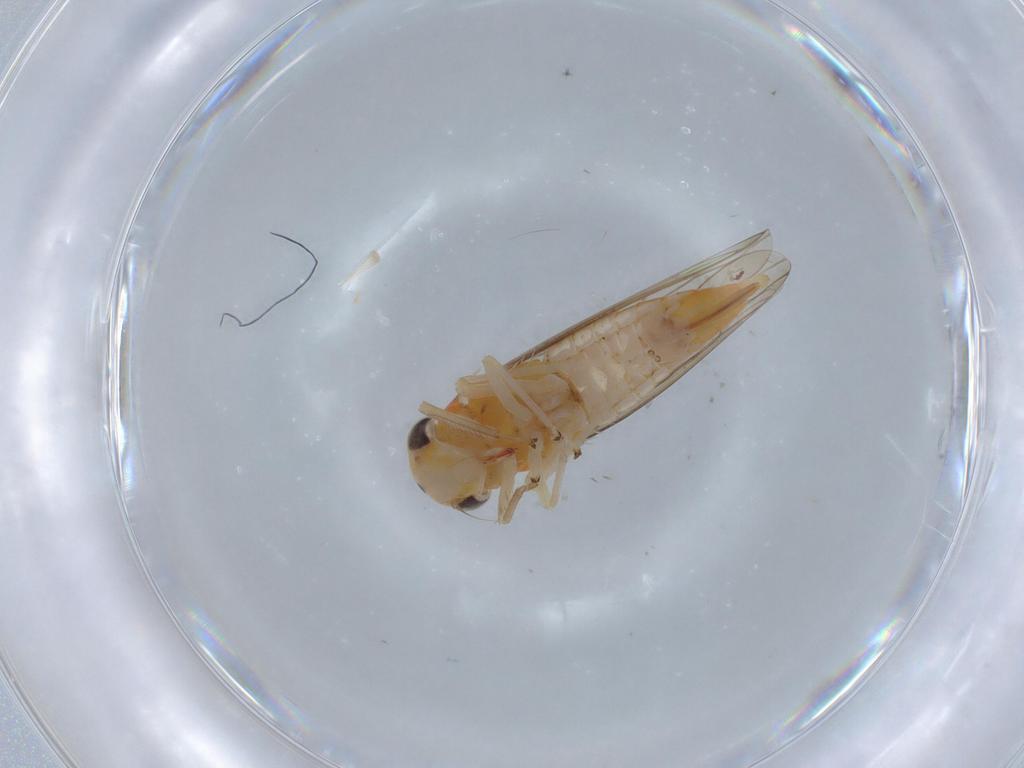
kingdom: Animalia
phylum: Arthropoda
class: Insecta
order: Hemiptera
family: Cicadellidae
